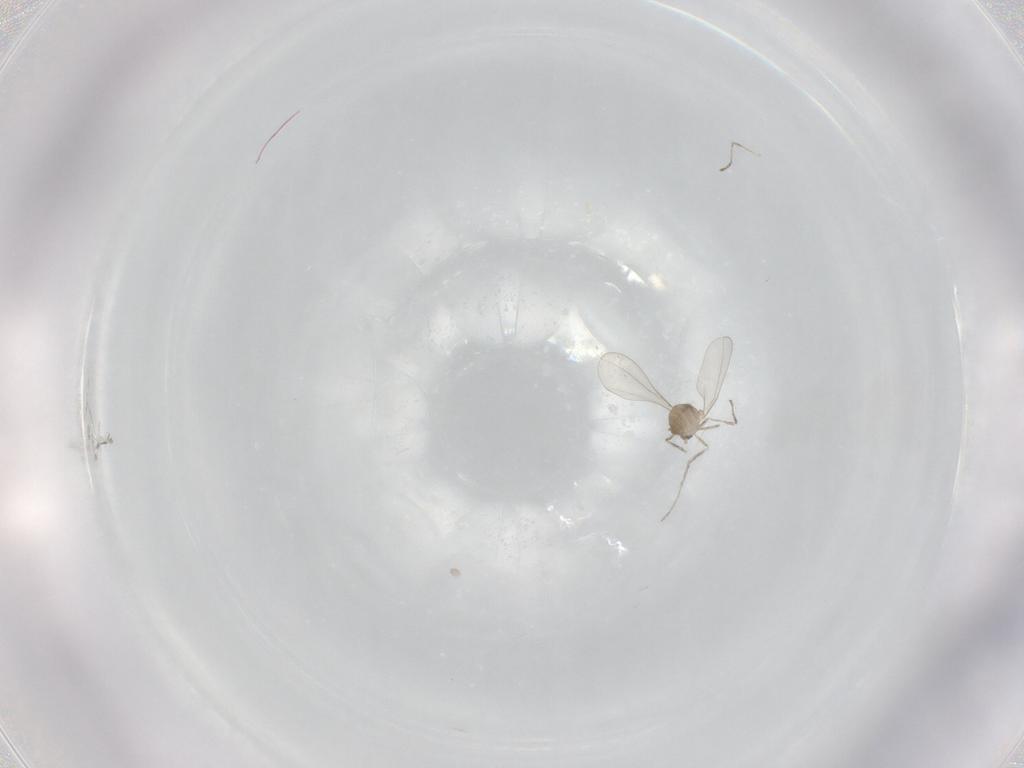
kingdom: Animalia
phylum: Arthropoda
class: Insecta
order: Diptera
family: Cecidomyiidae
